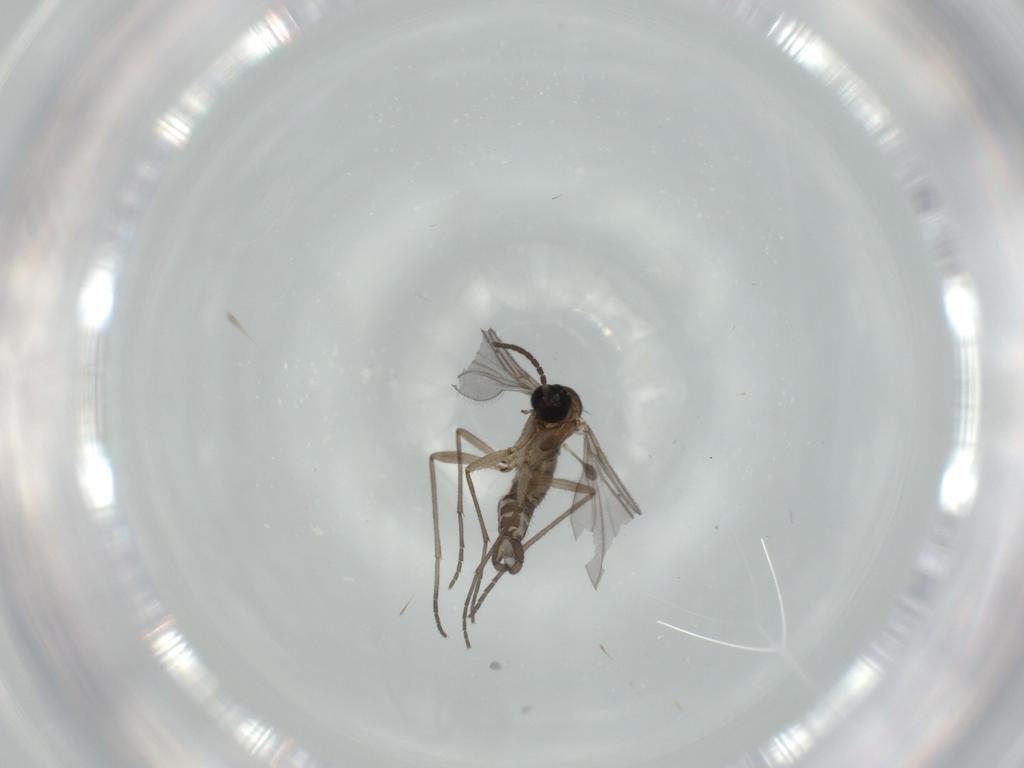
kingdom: Animalia
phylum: Arthropoda
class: Insecta
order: Diptera
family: Sciaridae
